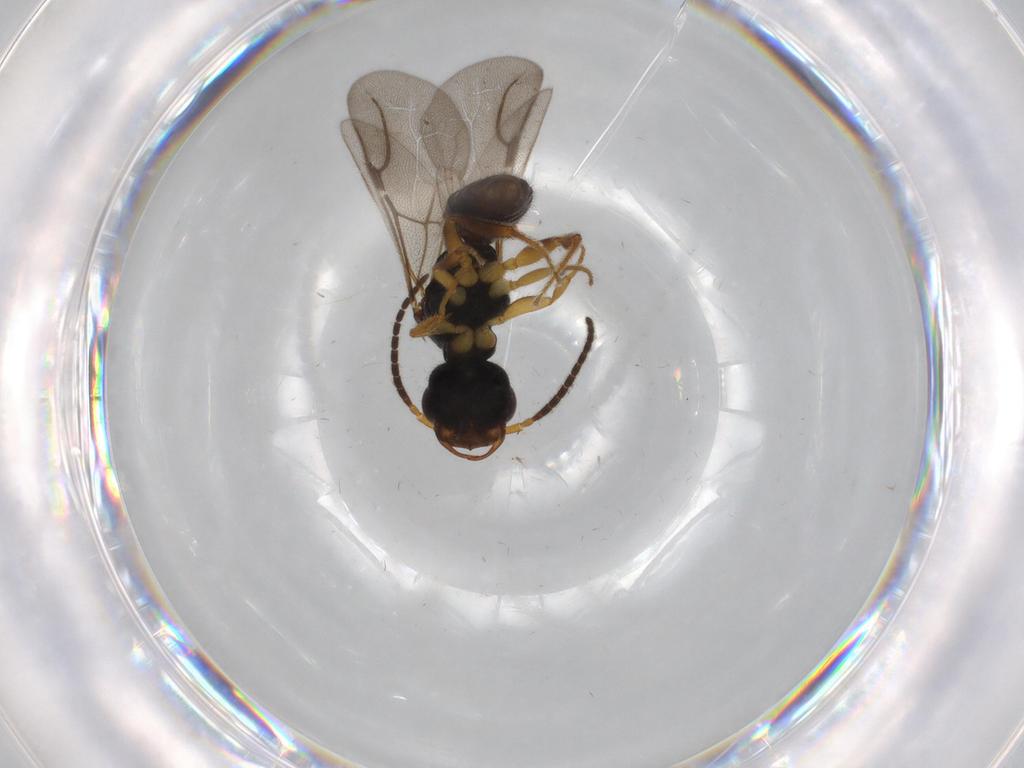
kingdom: Animalia
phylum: Arthropoda
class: Insecta
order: Hymenoptera
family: Bethylidae
